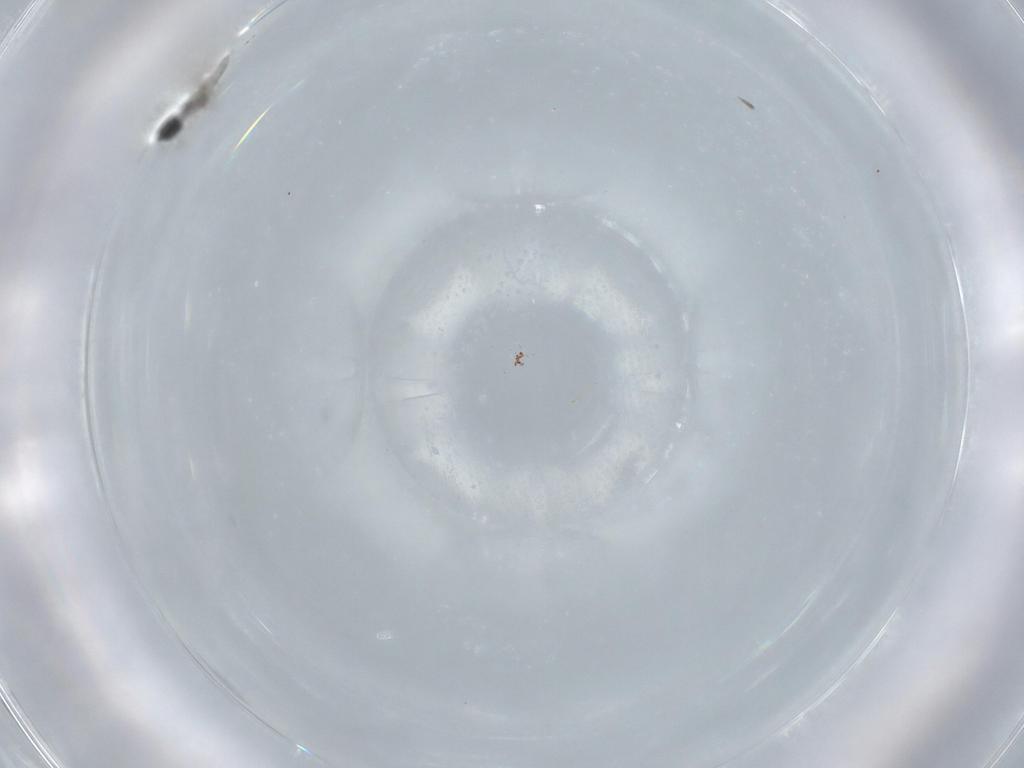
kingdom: Animalia
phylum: Arthropoda
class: Insecta
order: Diptera
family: Cecidomyiidae
